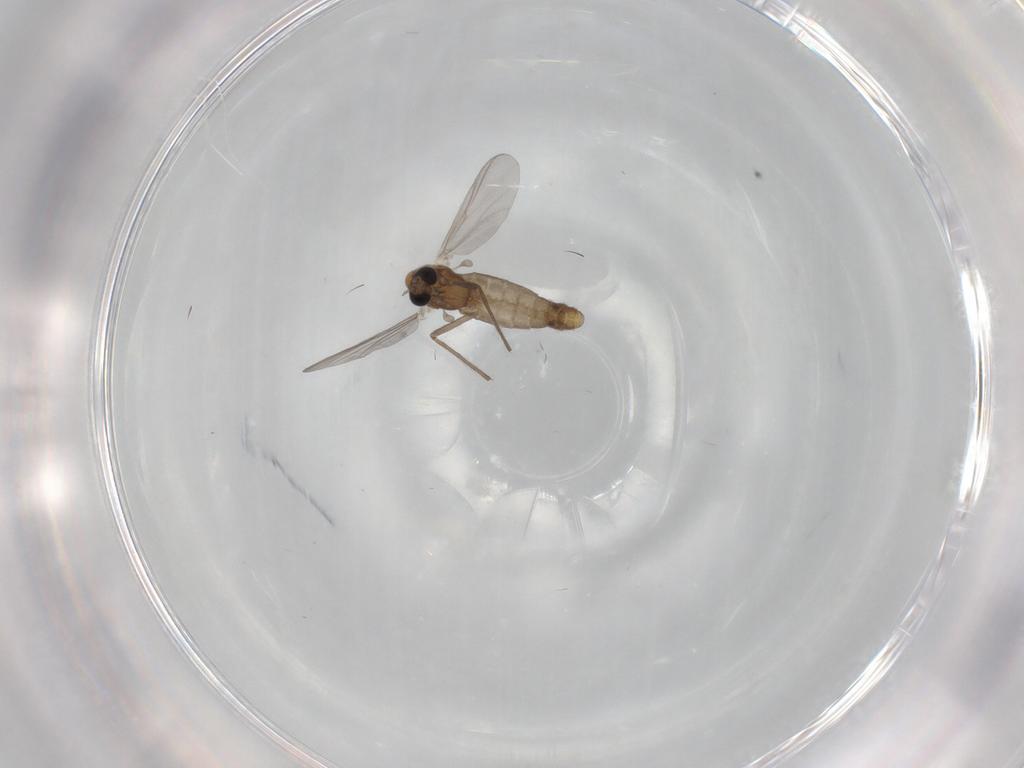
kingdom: Animalia
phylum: Arthropoda
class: Insecta
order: Diptera
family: Chironomidae
